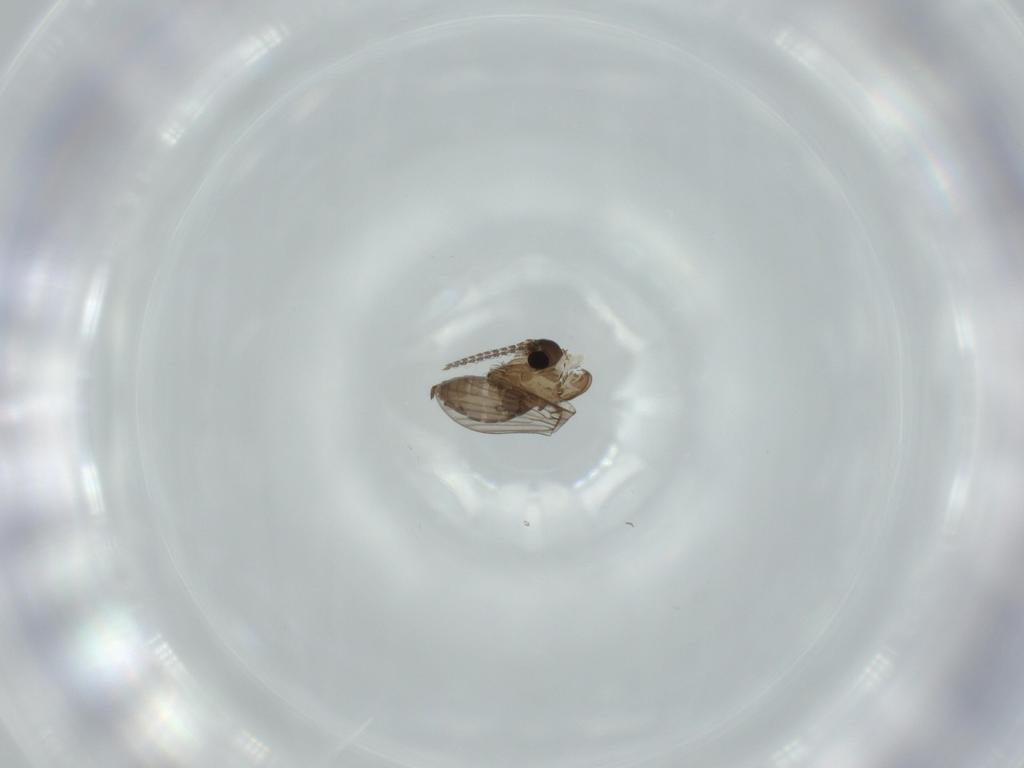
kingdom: Animalia
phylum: Arthropoda
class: Insecta
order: Diptera
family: Psychodidae
